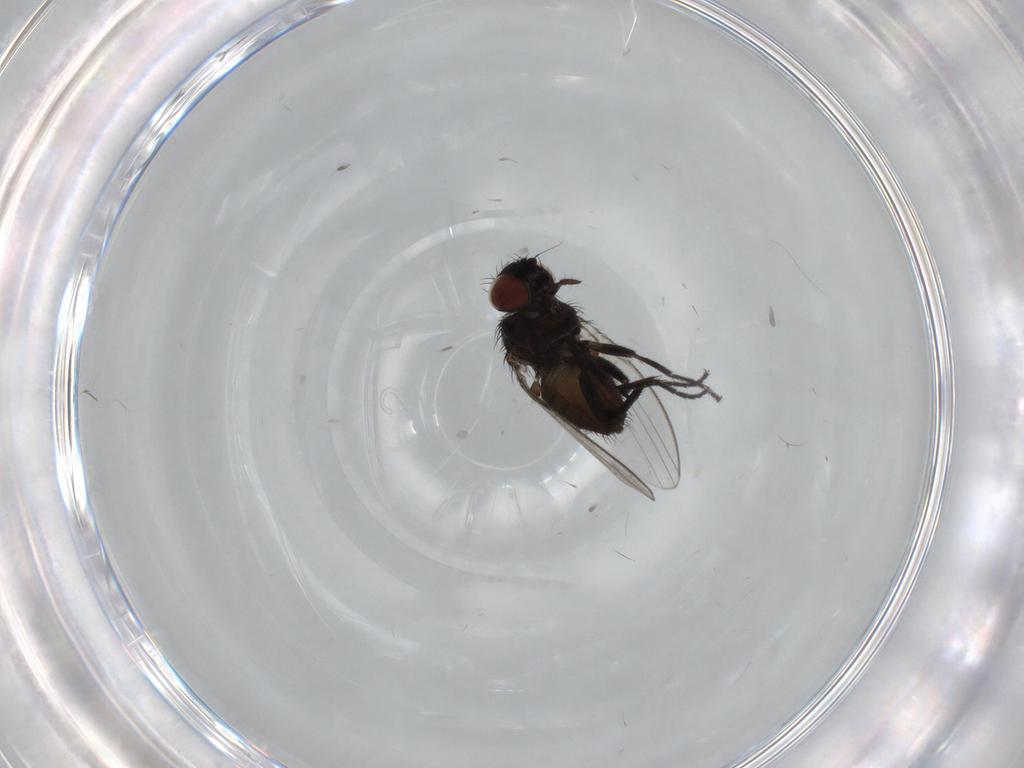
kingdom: Animalia
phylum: Arthropoda
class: Insecta
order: Diptera
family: Milichiidae
